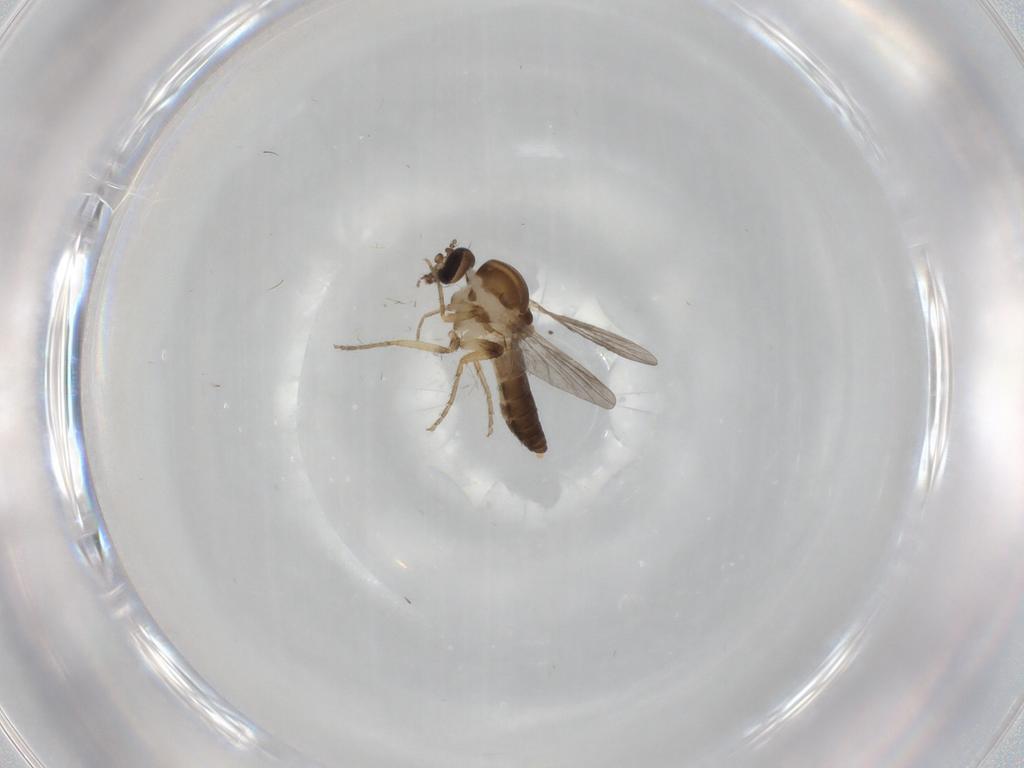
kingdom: Animalia
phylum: Arthropoda
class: Insecta
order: Diptera
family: Ceratopogonidae
